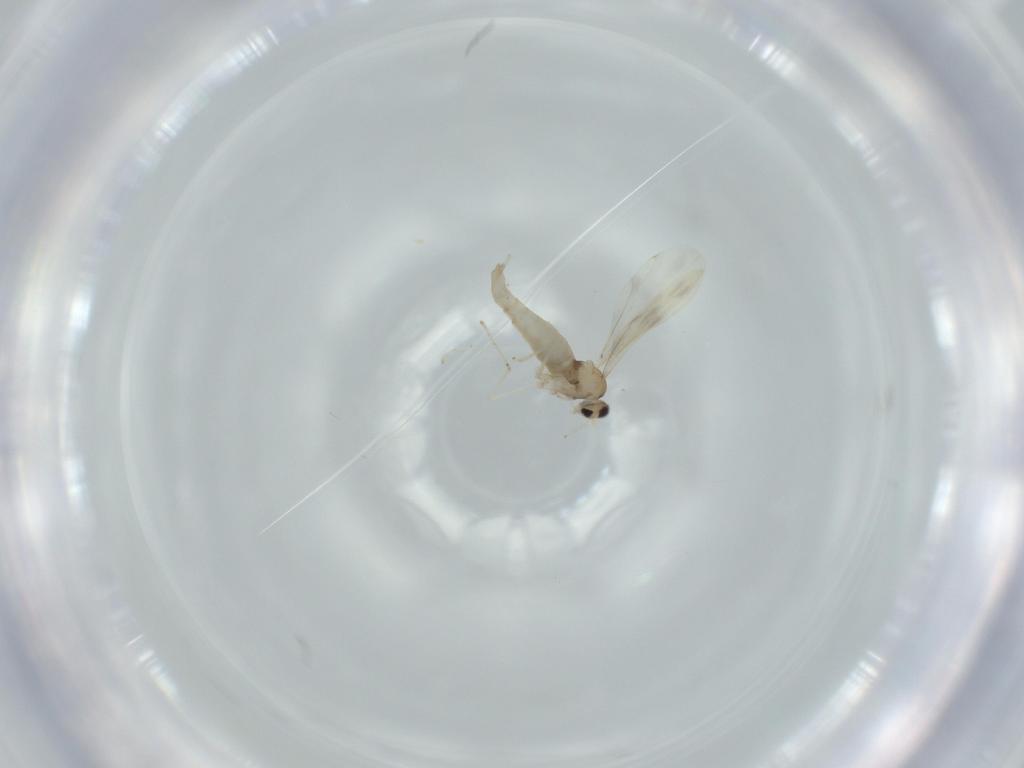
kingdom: Animalia
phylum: Arthropoda
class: Insecta
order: Diptera
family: Cecidomyiidae
